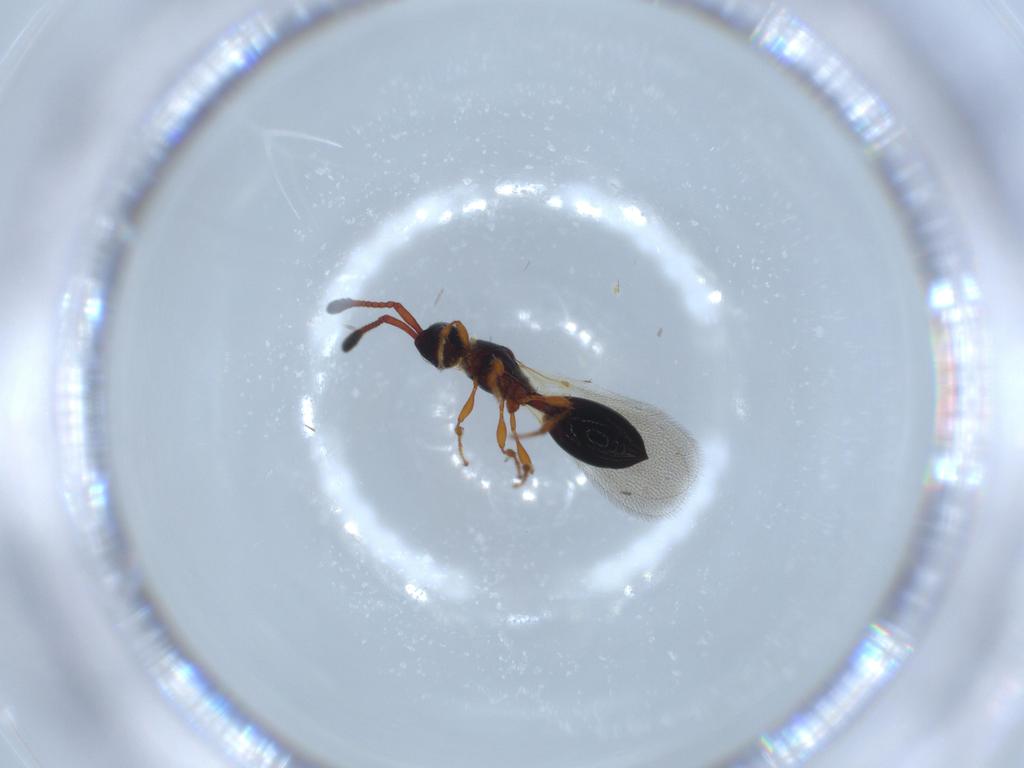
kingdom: Animalia
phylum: Arthropoda
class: Insecta
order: Hymenoptera
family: Diapriidae
